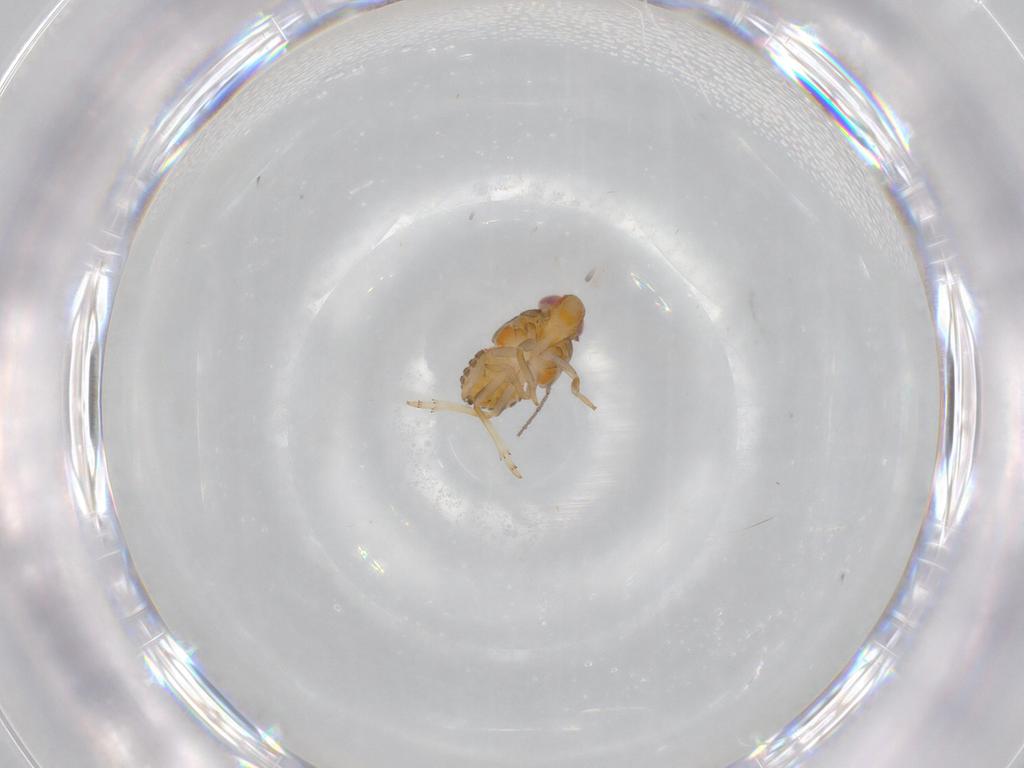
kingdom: Animalia
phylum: Arthropoda
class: Insecta
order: Hemiptera
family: Issidae
